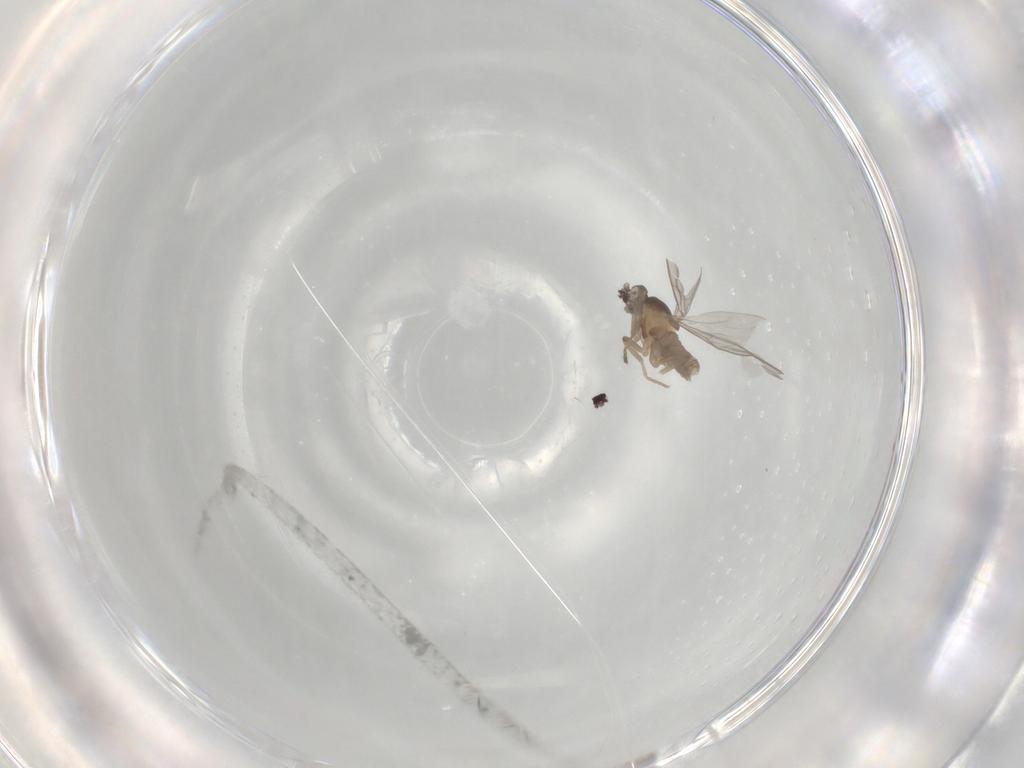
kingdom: Animalia
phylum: Arthropoda
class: Insecta
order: Diptera
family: Cecidomyiidae
